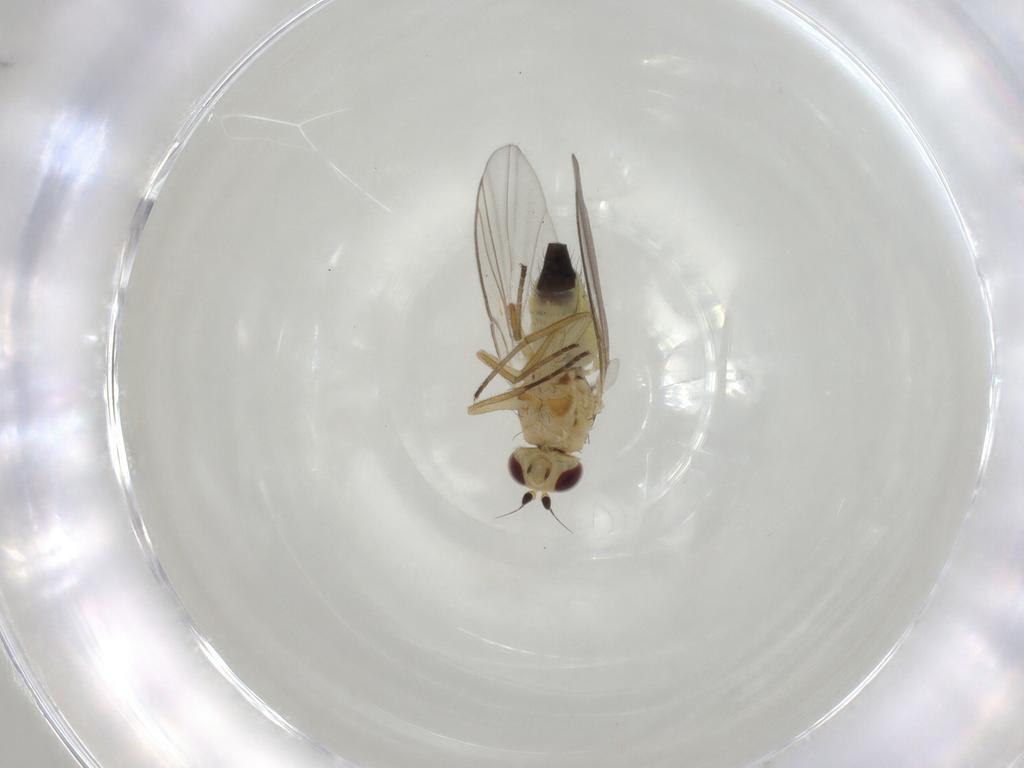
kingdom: Animalia
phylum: Arthropoda
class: Insecta
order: Diptera
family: Agromyzidae
